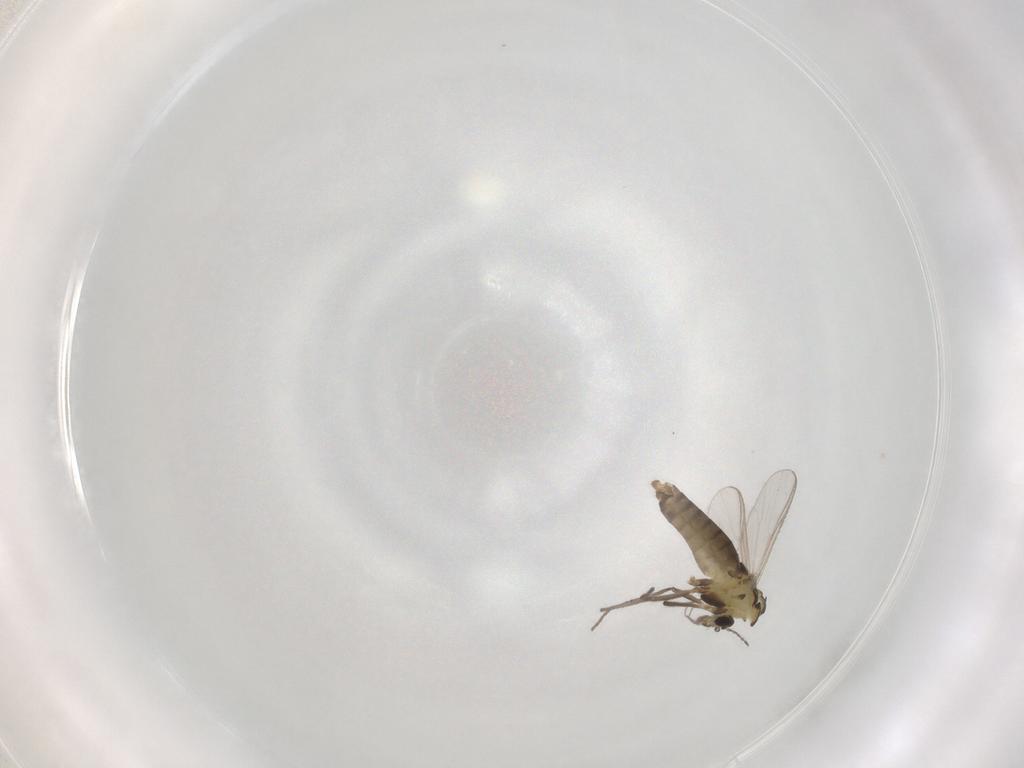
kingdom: Animalia
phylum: Arthropoda
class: Insecta
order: Diptera
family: Chironomidae
